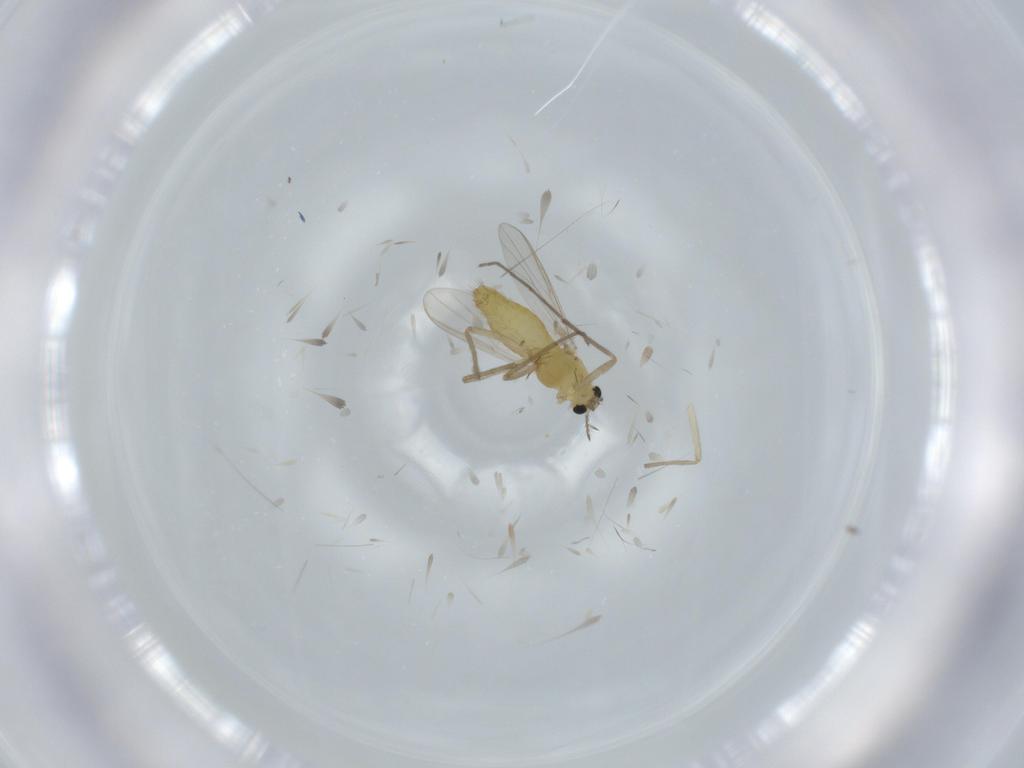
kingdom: Animalia
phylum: Arthropoda
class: Insecta
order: Diptera
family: Chironomidae
